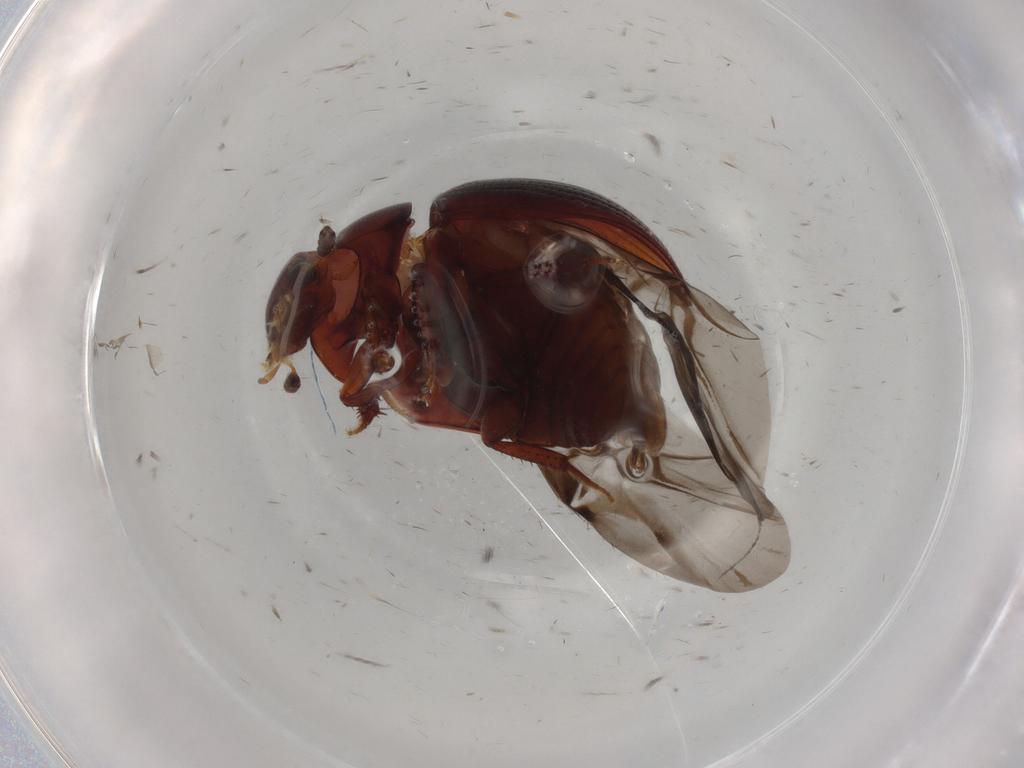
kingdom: Animalia
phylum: Arthropoda
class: Insecta
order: Coleoptera
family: Hydrophilidae
